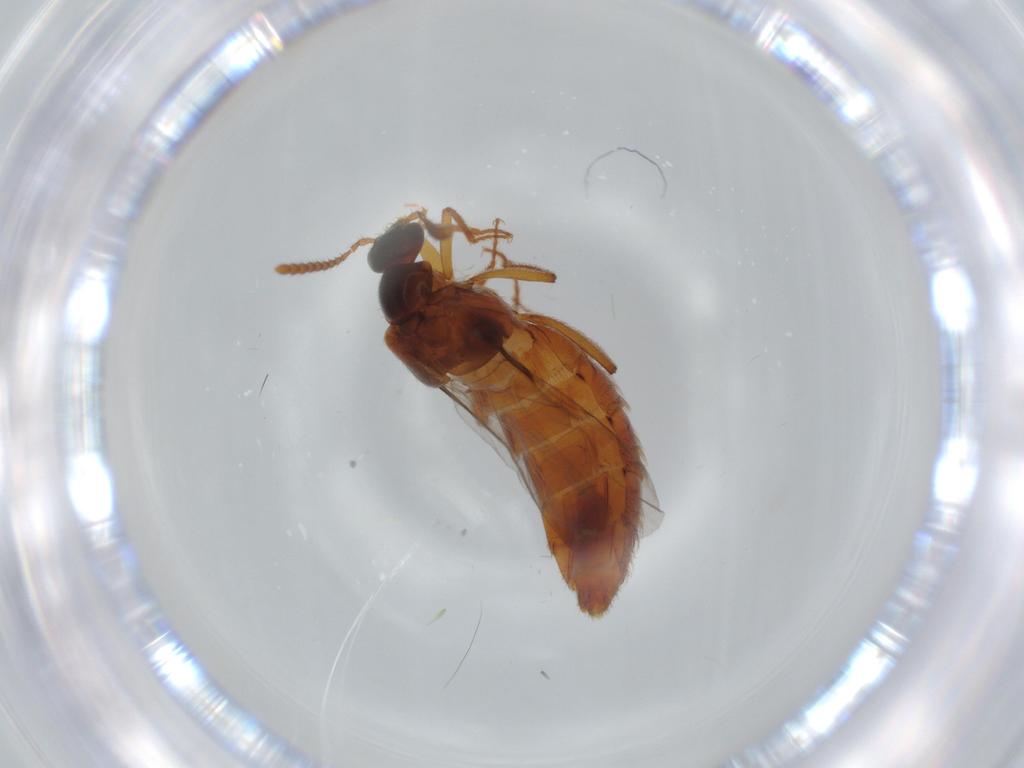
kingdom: Animalia
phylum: Arthropoda
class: Insecta
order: Coleoptera
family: Staphylinidae
